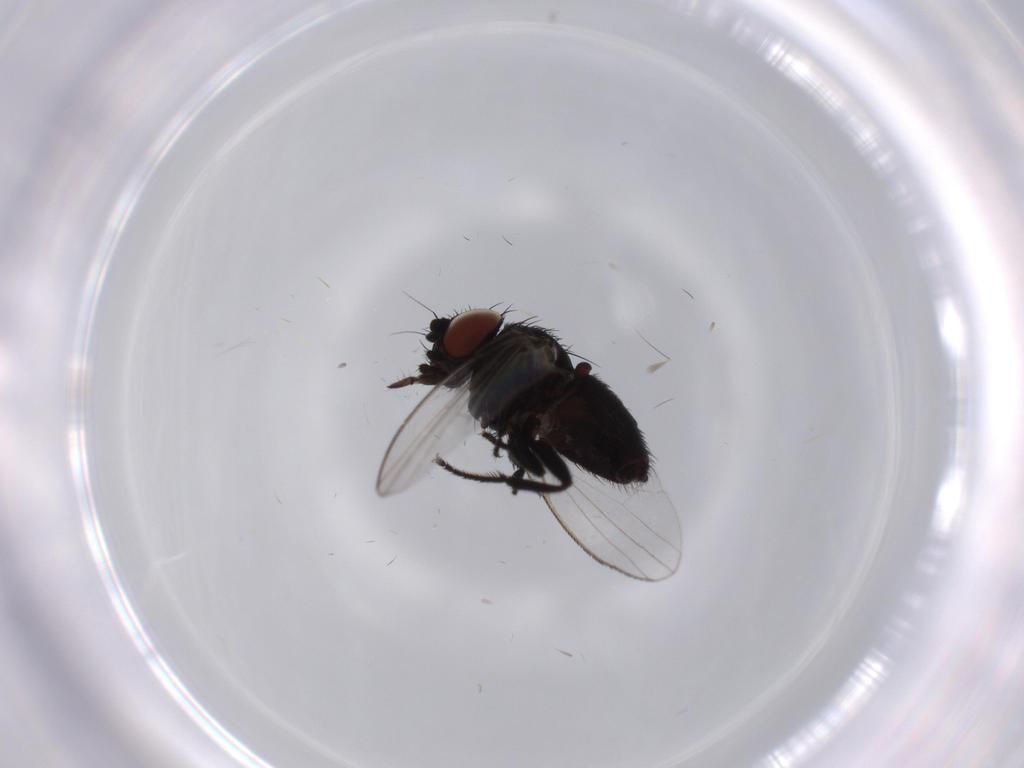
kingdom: Animalia
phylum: Arthropoda
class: Insecta
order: Diptera
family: Milichiidae
